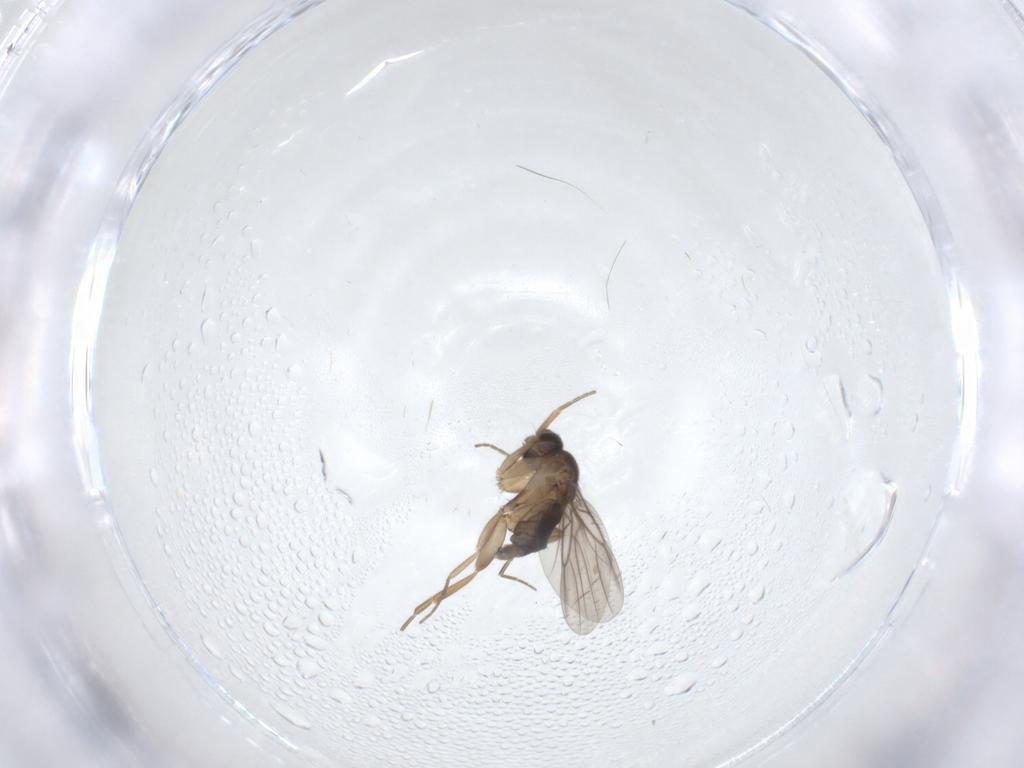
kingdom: Animalia
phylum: Arthropoda
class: Insecta
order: Diptera
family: Chironomidae
